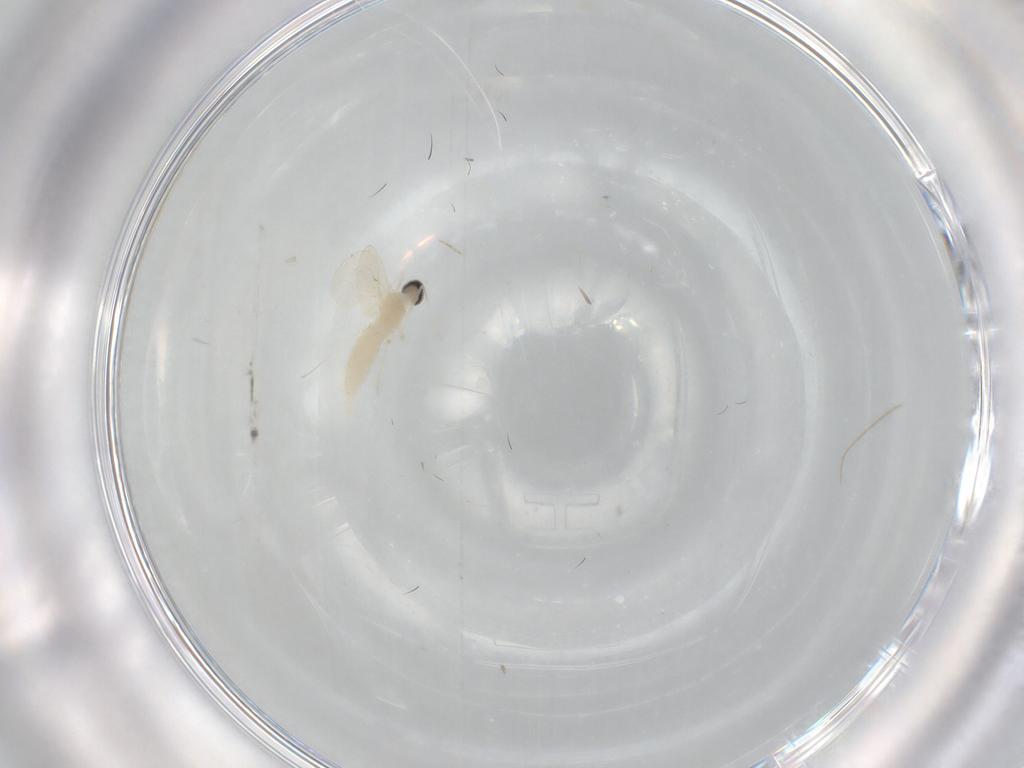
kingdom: Animalia
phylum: Arthropoda
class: Insecta
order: Diptera
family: Cecidomyiidae
